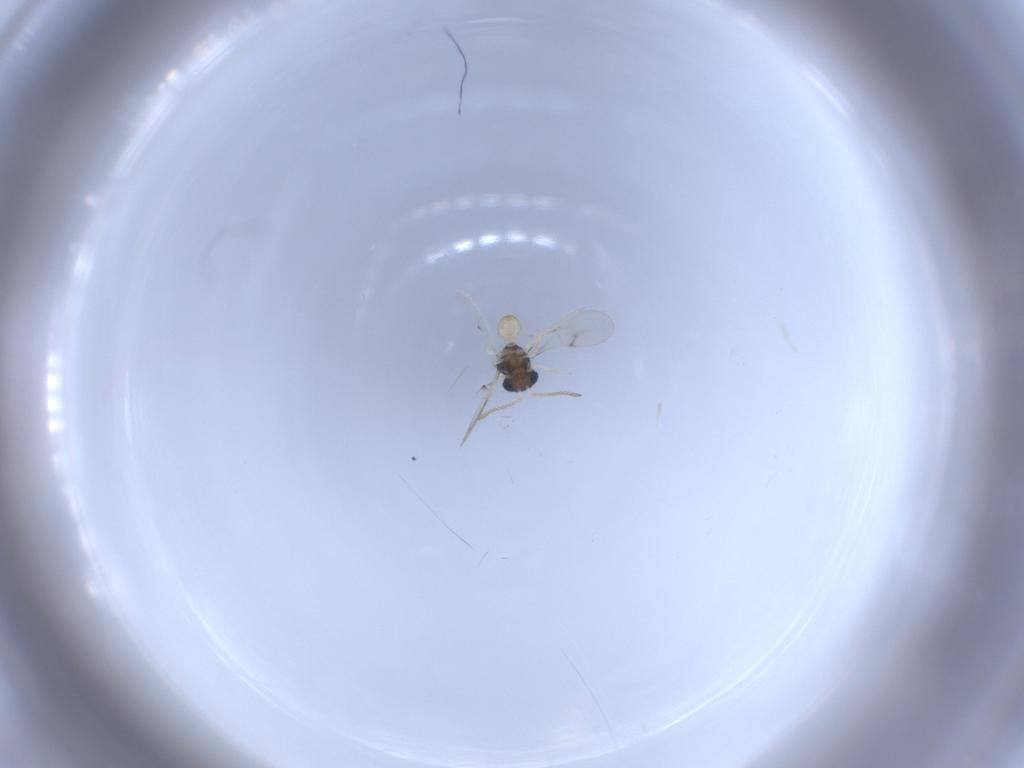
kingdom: Animalia
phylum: Arthropoda
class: Insecta
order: Hymenoptera
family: Scelionidae
